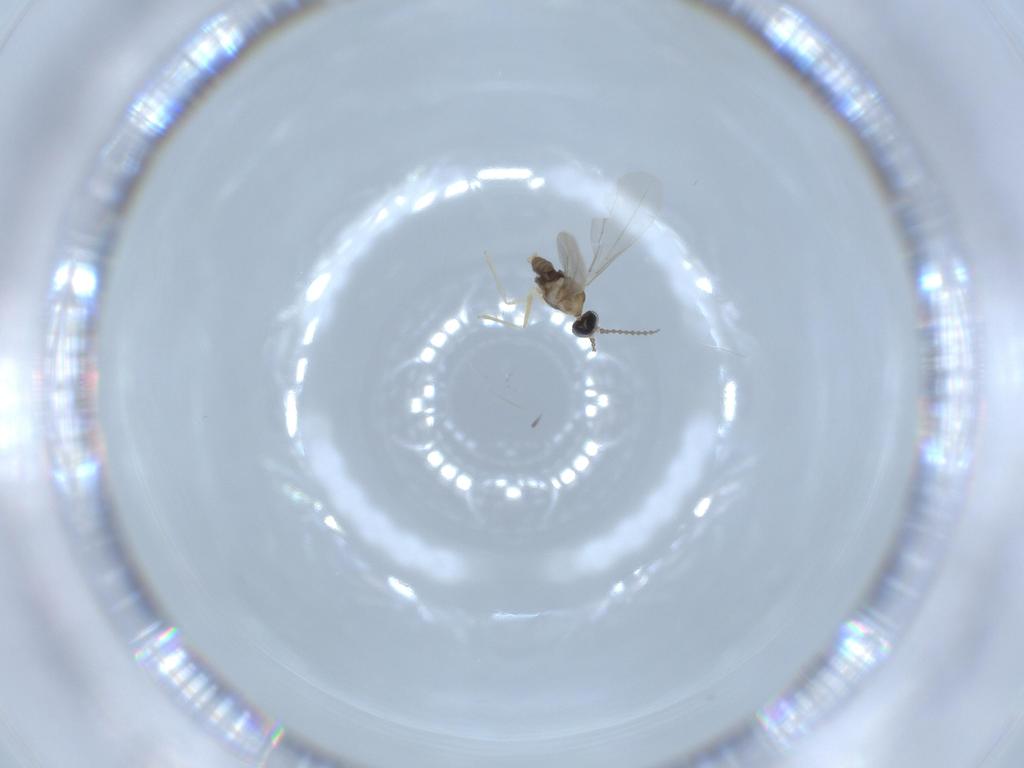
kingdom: Animalia
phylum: Arthropoda
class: Insecta
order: Diptera
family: Cecidomyiidae
